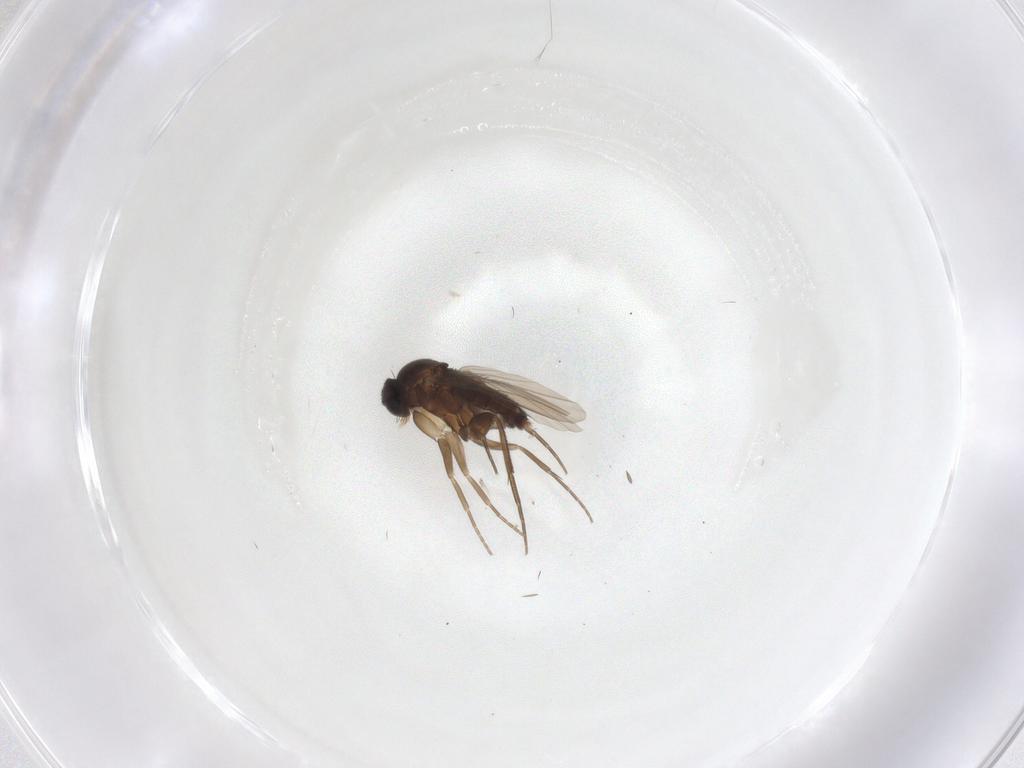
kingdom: Animalia
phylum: Arthropoda
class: Insecta
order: Diptera
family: Phoridae
